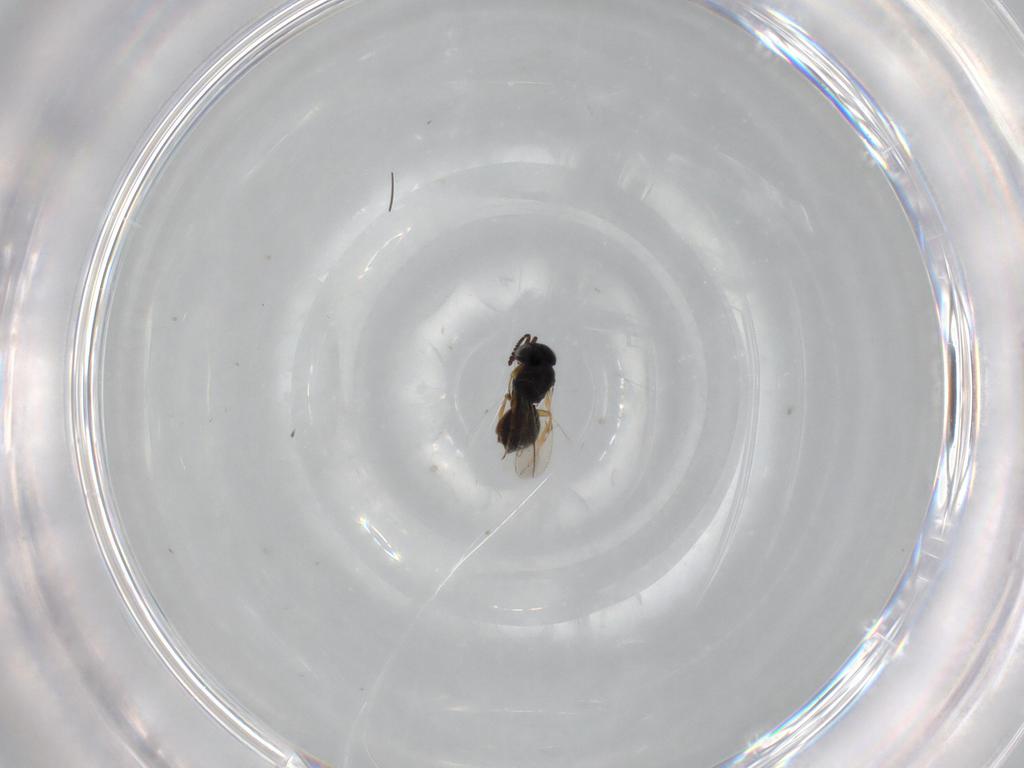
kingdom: Animalia
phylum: Arthropoda
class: Insecta
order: Hymenoptera
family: Scelionidae
